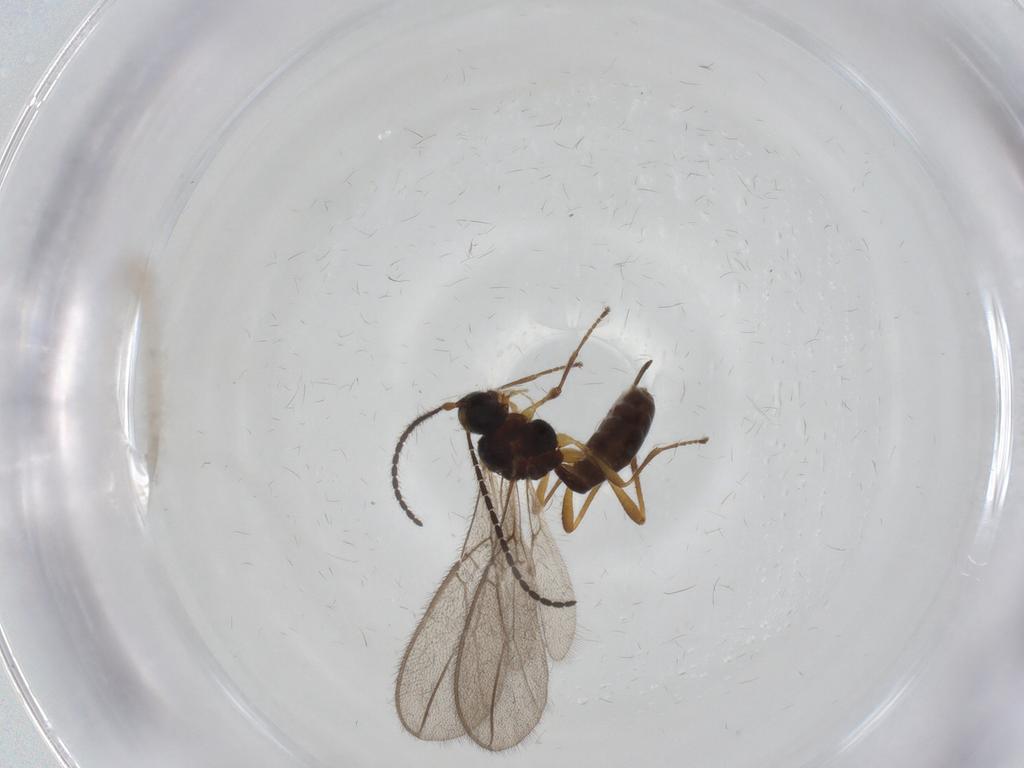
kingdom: Animalia
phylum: Arthropoda
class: Insecta
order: Hymenoptera
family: Braconidae
